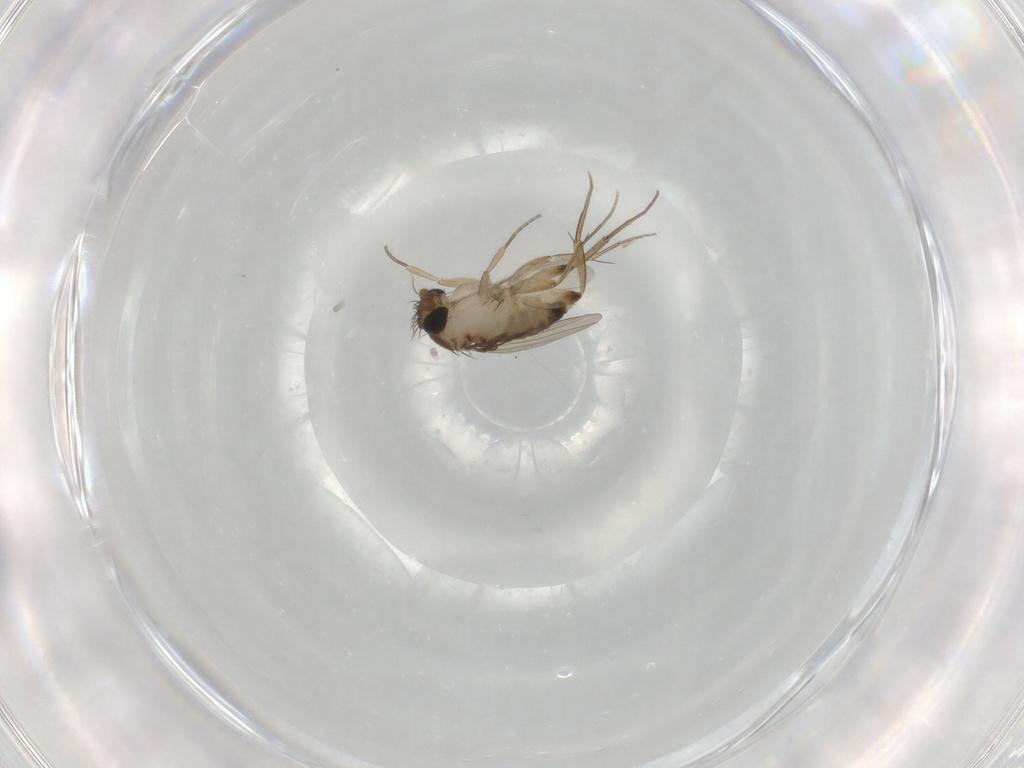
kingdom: Animalia
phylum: Arthropoda
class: Insecta
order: Diptera
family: Phoridae
